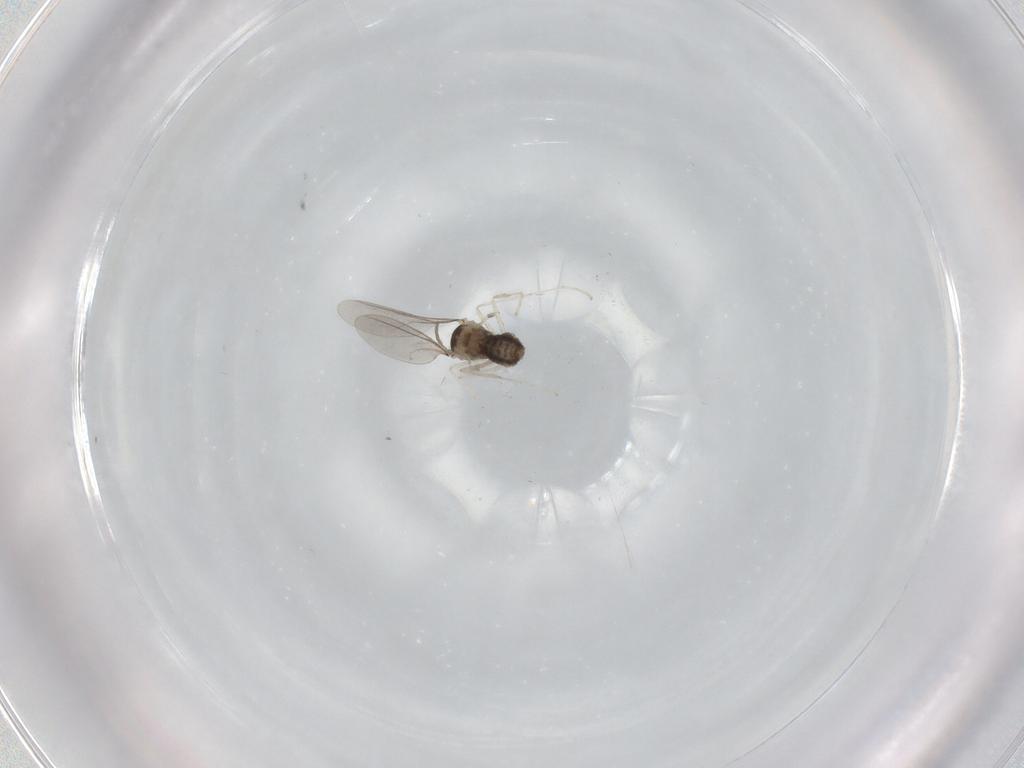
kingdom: Animalia
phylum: Arthropoda
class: Insecta
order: Diptera
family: Cecidomyiidae
